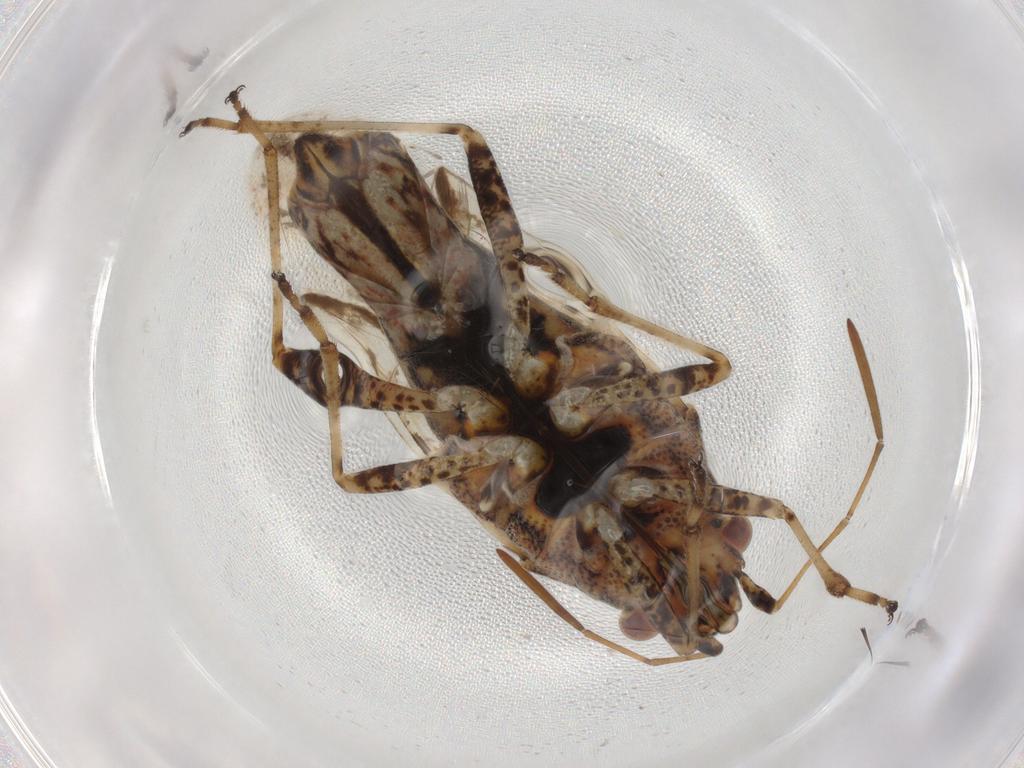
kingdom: Animalia
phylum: Arthropoda
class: Insecta
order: Hemiptera
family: Lygaeidae
